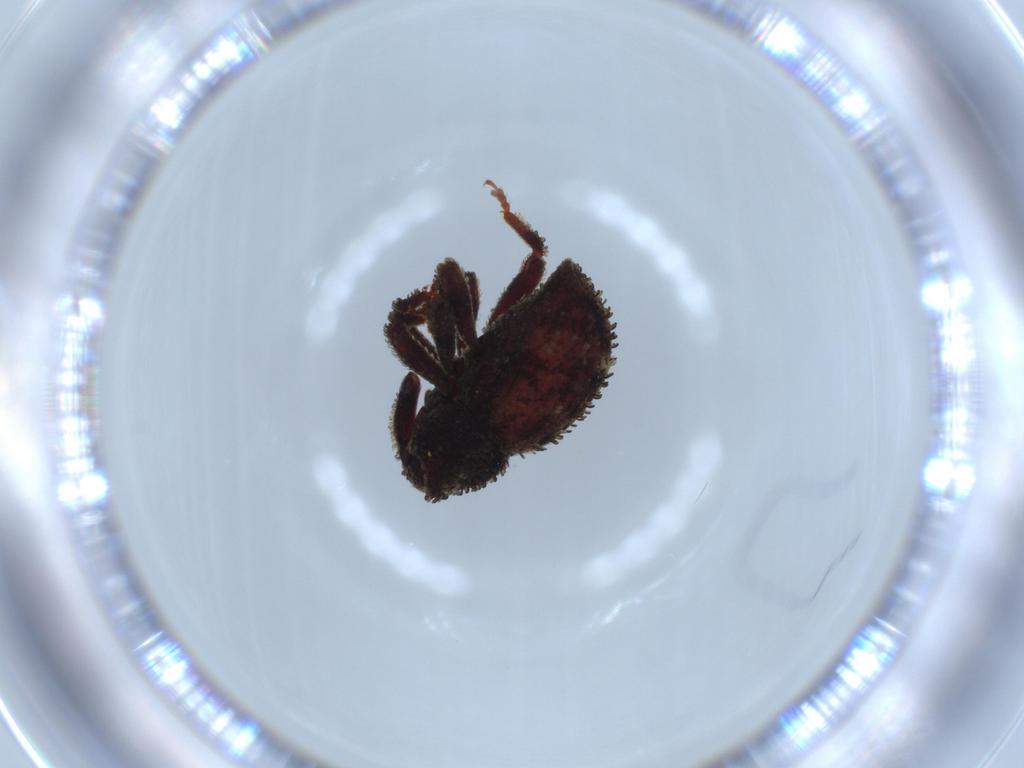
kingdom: Animalia
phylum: Arthropoda
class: Insecta
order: Coleoptera
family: Curculionidae
